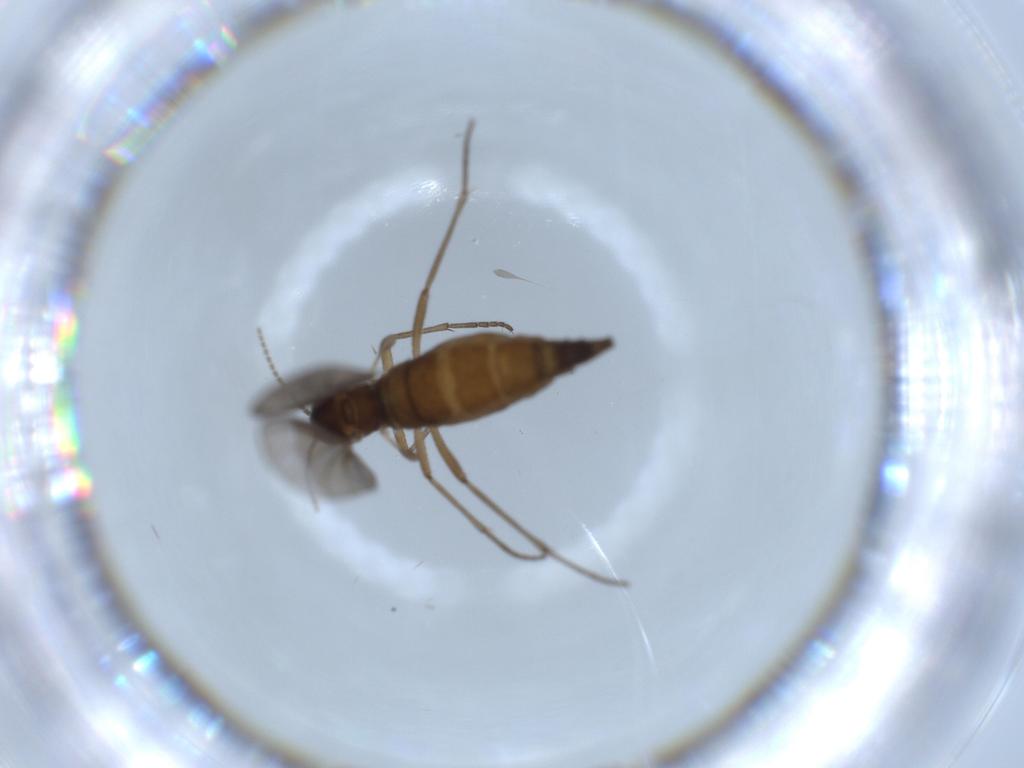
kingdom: Animalia
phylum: Arthropoda
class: Insecta
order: Diptera
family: Sciaridae
